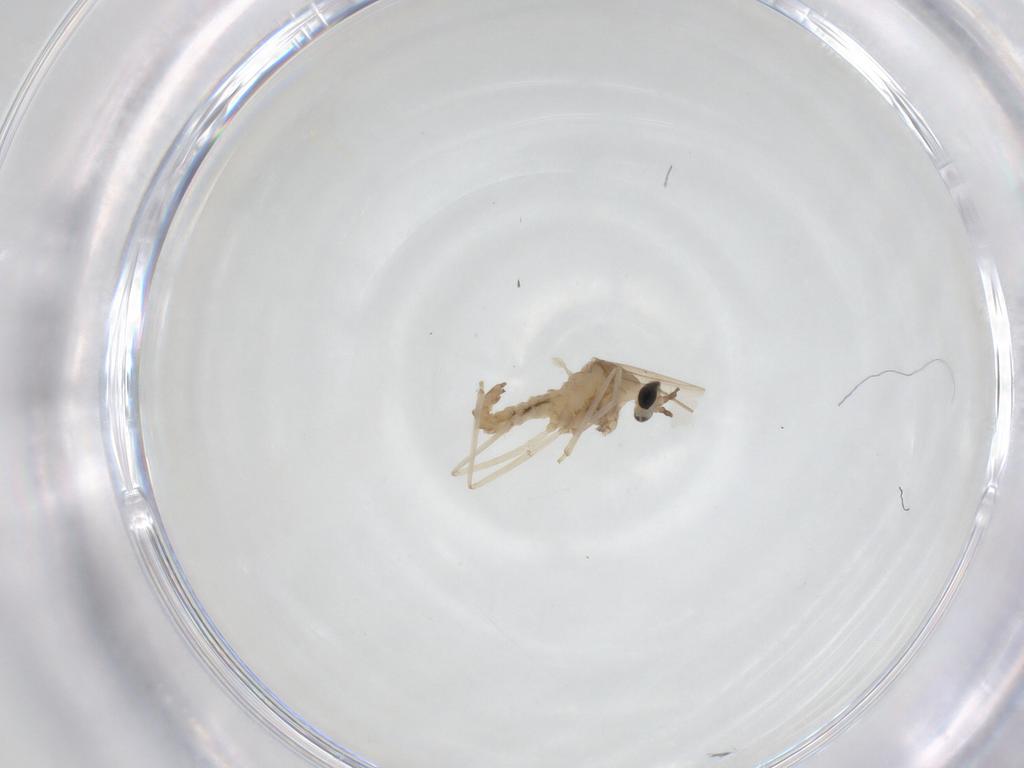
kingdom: Animalia
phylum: Arthropoda
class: Insecta
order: Diptera
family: Cecidomyiidae
